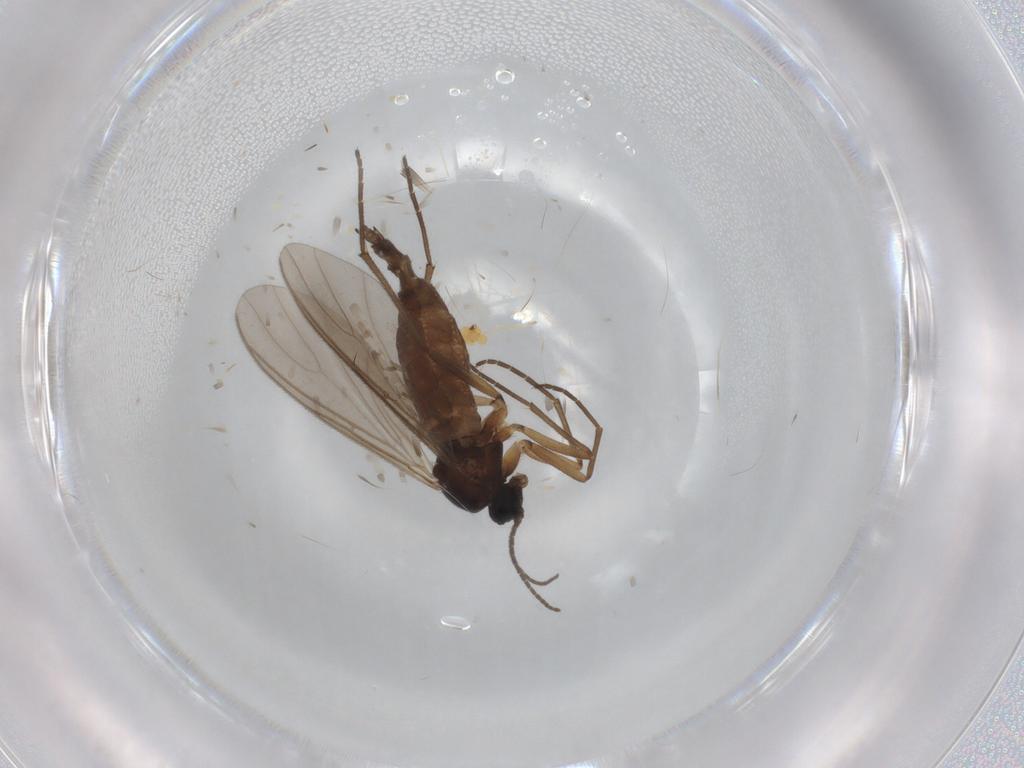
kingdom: Animalia
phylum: Arthropoda
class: Insecta
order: Diptera
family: Sciaridae
